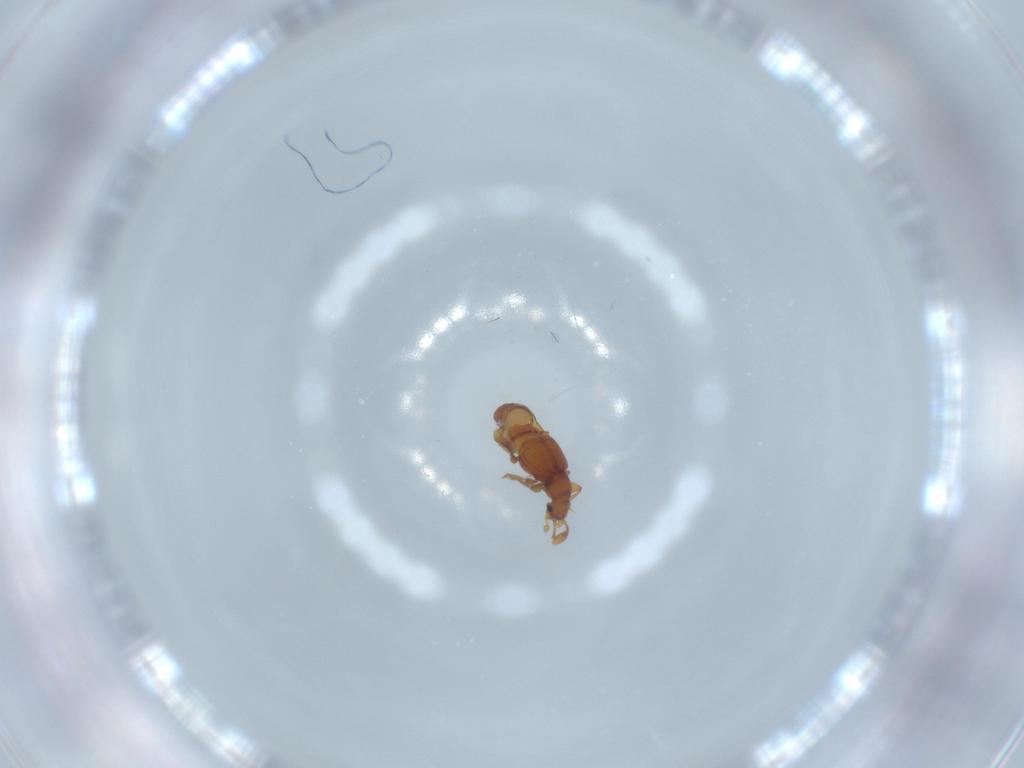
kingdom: Animalia
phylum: Arthropoda
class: Insecta
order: Coleoptera
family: Staphylinidae
